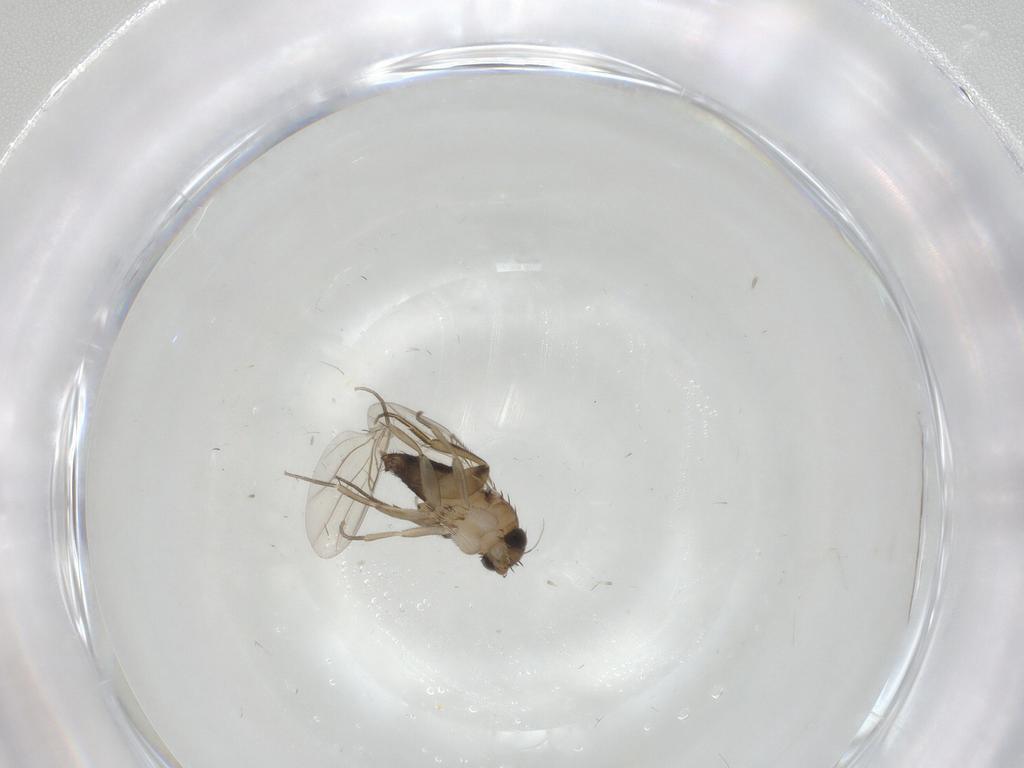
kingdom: Animalia
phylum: Arthropoda
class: Insecta
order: Diptera
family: Phoridae
